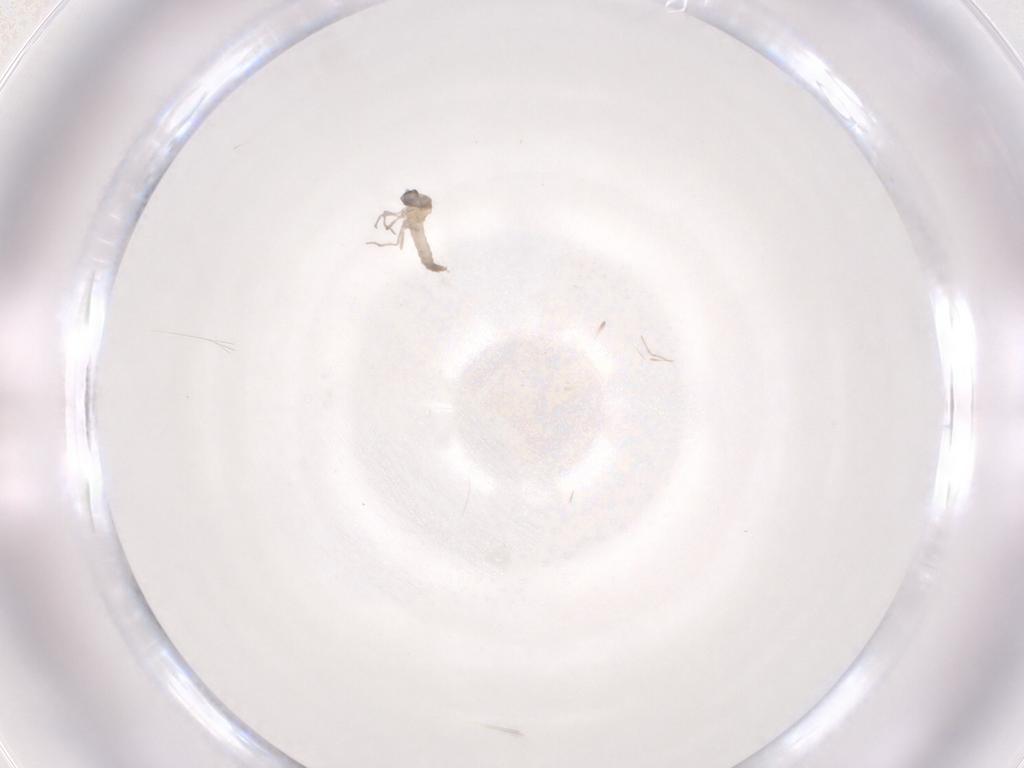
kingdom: Animalia
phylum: Arthropoda
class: Insecta
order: Diptera
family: Cecidomyiidae
